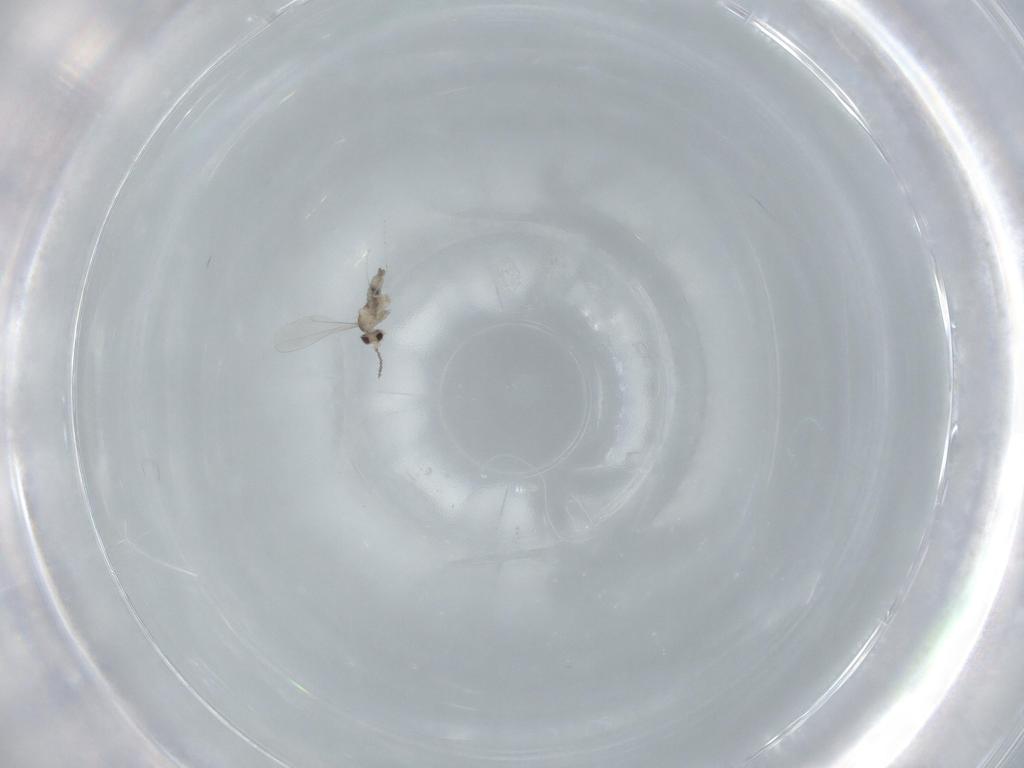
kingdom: Animalia
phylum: Arthropoda
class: Insecta
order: Diptera
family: Cecidomyiidae
